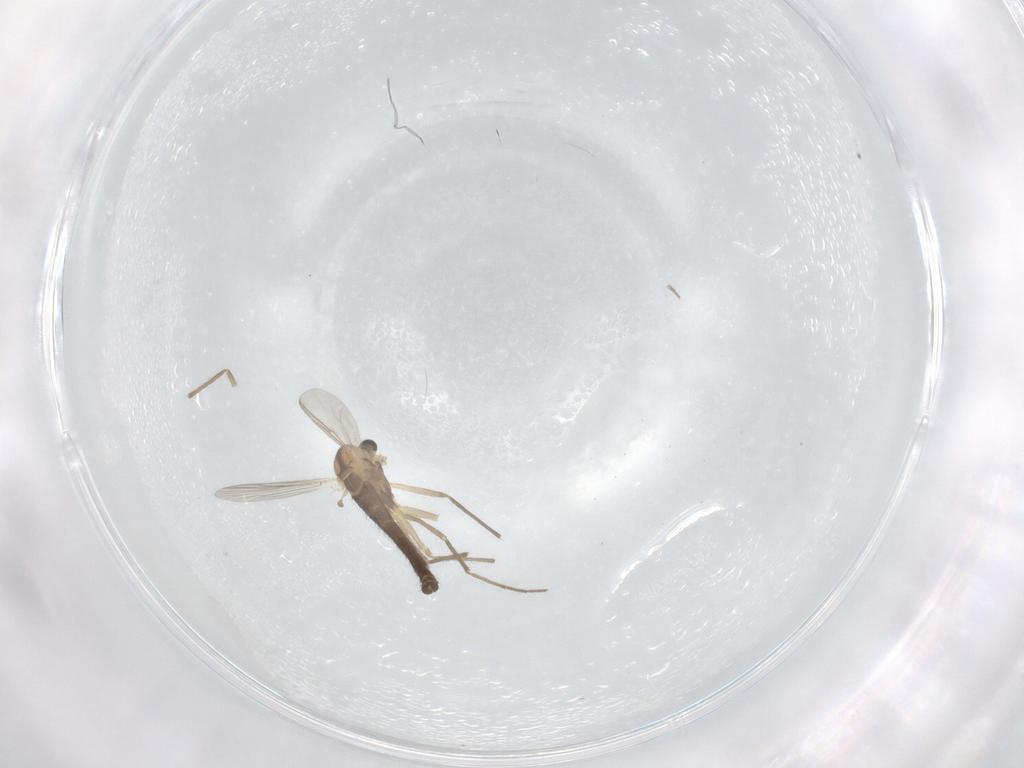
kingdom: Animalia
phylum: Arthropoda
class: Insecta
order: Diptera
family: Chironomidae
